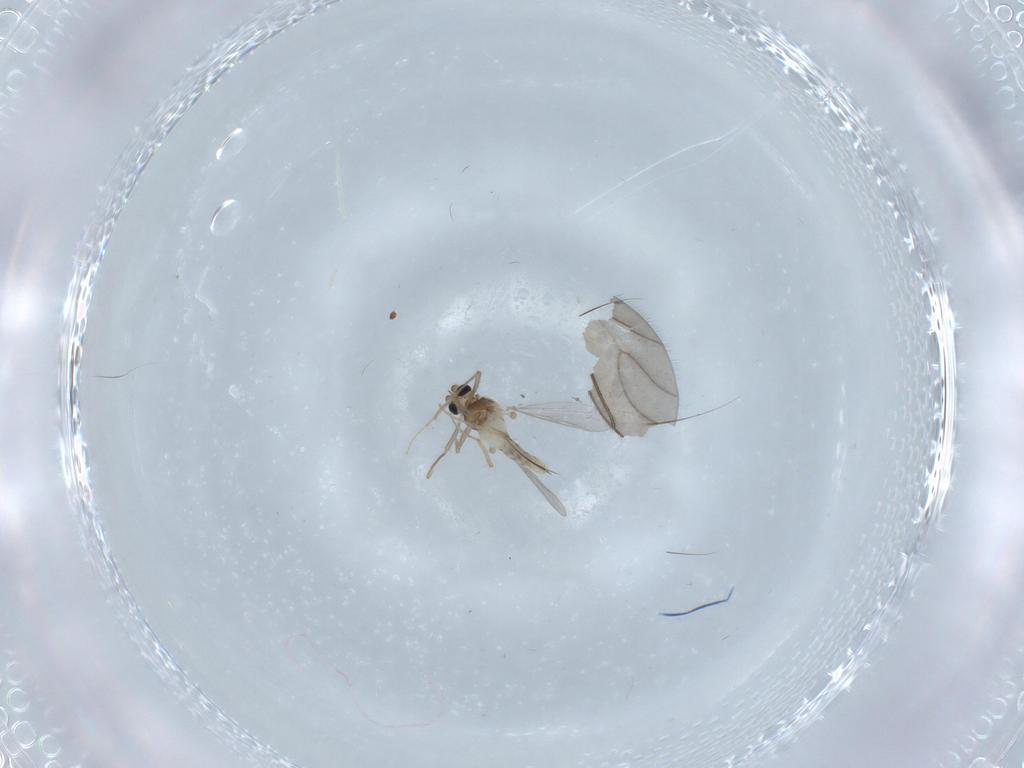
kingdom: Animalia
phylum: Arthropoda
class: Insecta
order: Diptera
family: Chironomidae
